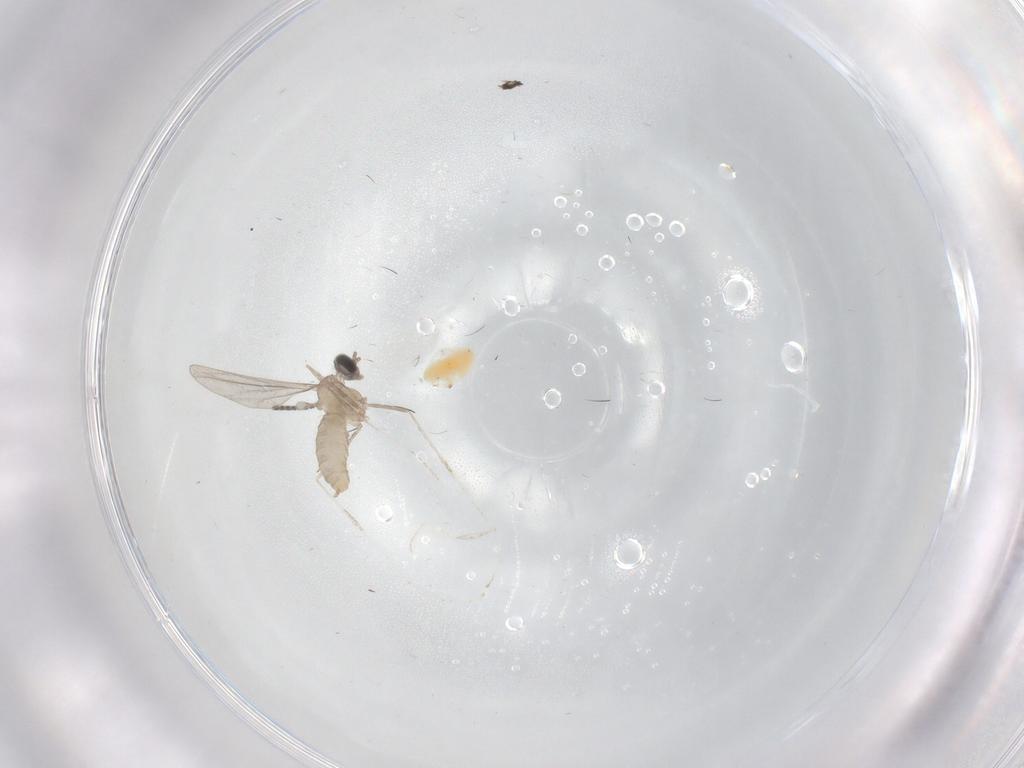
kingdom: Animalia
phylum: Arthropoda
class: Insecta
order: Diptera
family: Sciaridae
